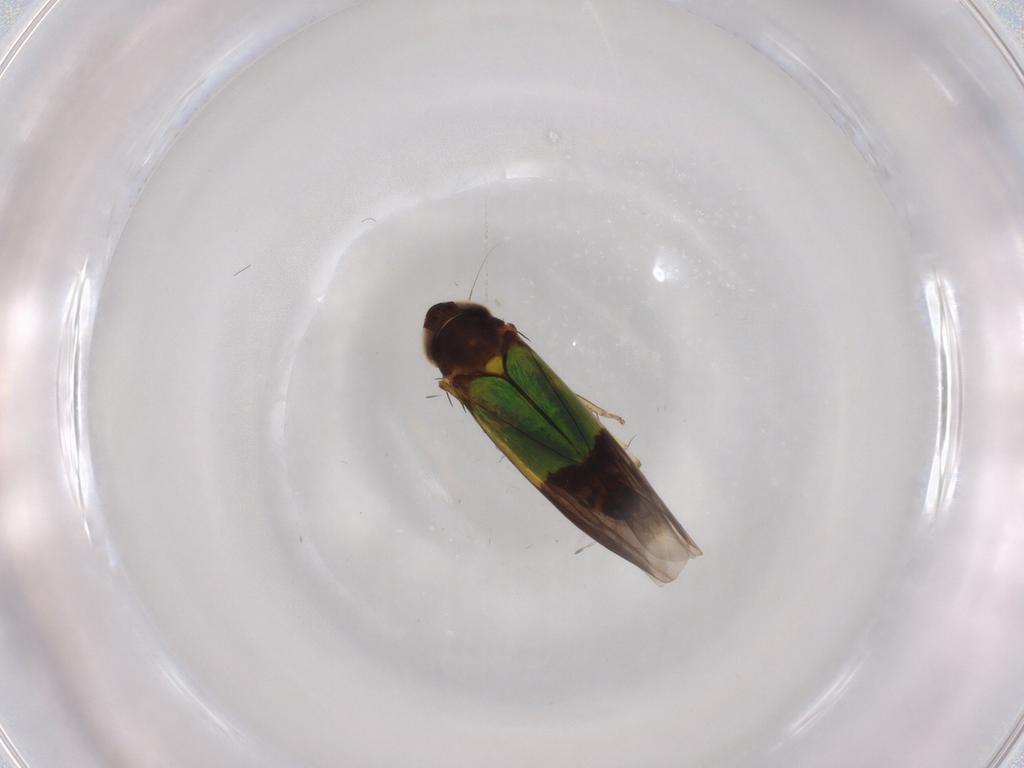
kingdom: Animalia
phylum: Arthropoda
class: Insecta
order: Hemiptera
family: Cicadellidae
